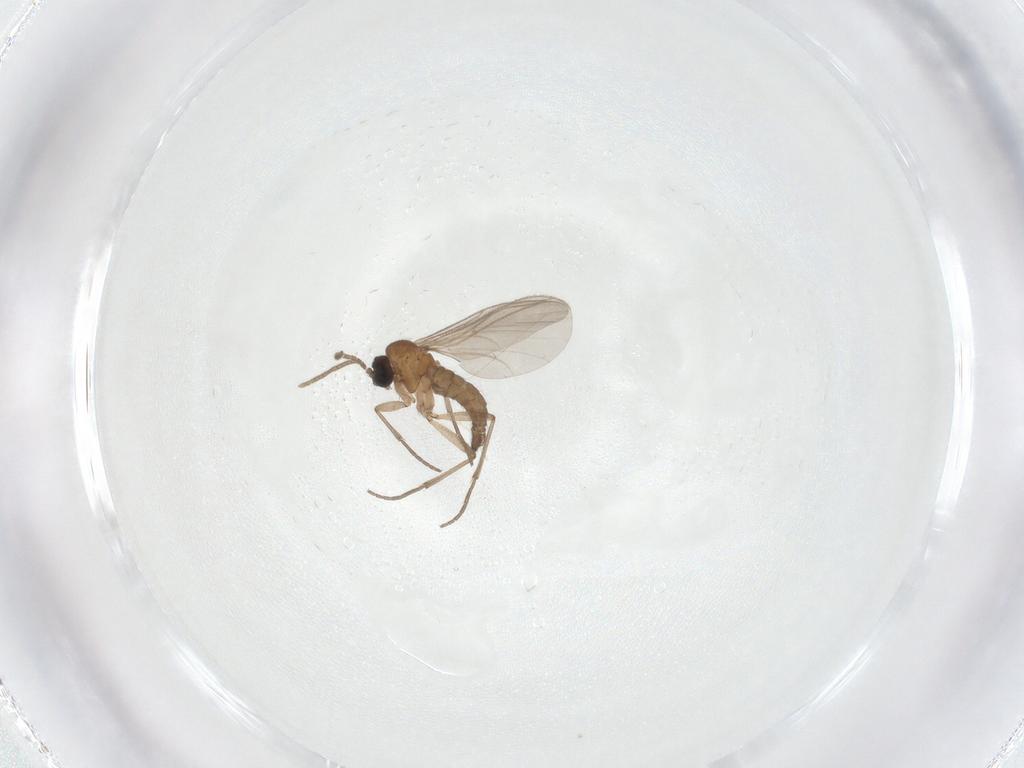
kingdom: Animalia
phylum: Arthropoda
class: Insecta
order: Diptera
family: Sciaridae
